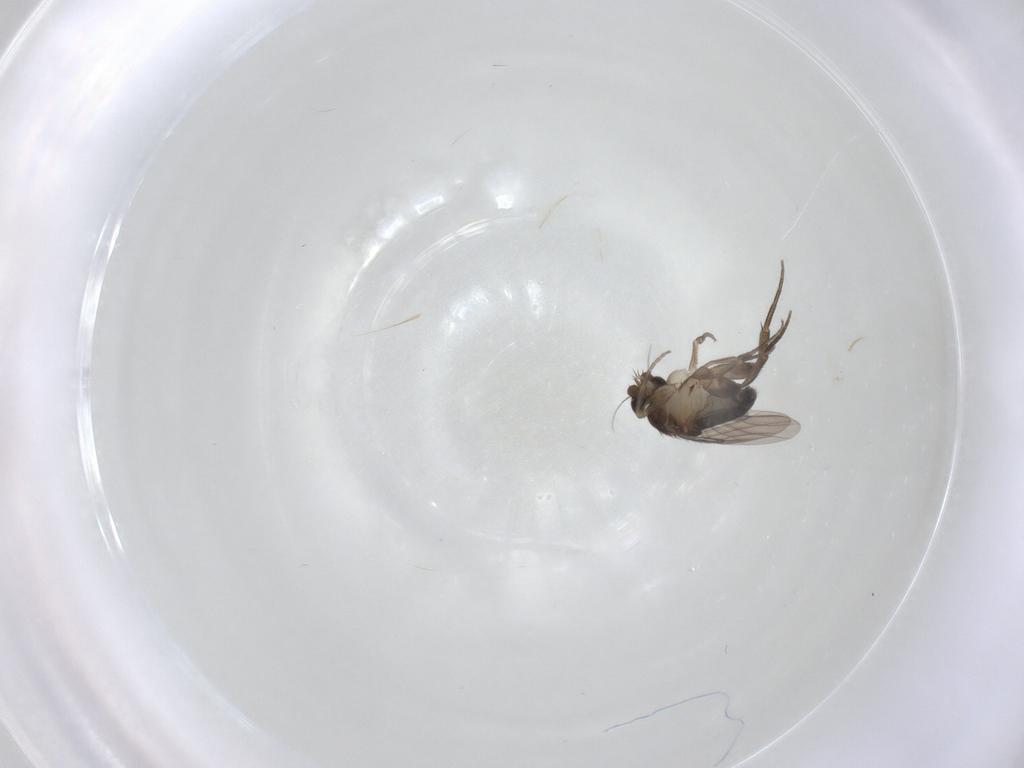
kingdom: Animalia
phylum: Arthropoda
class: Insecta
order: Diptera
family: Phoridae
